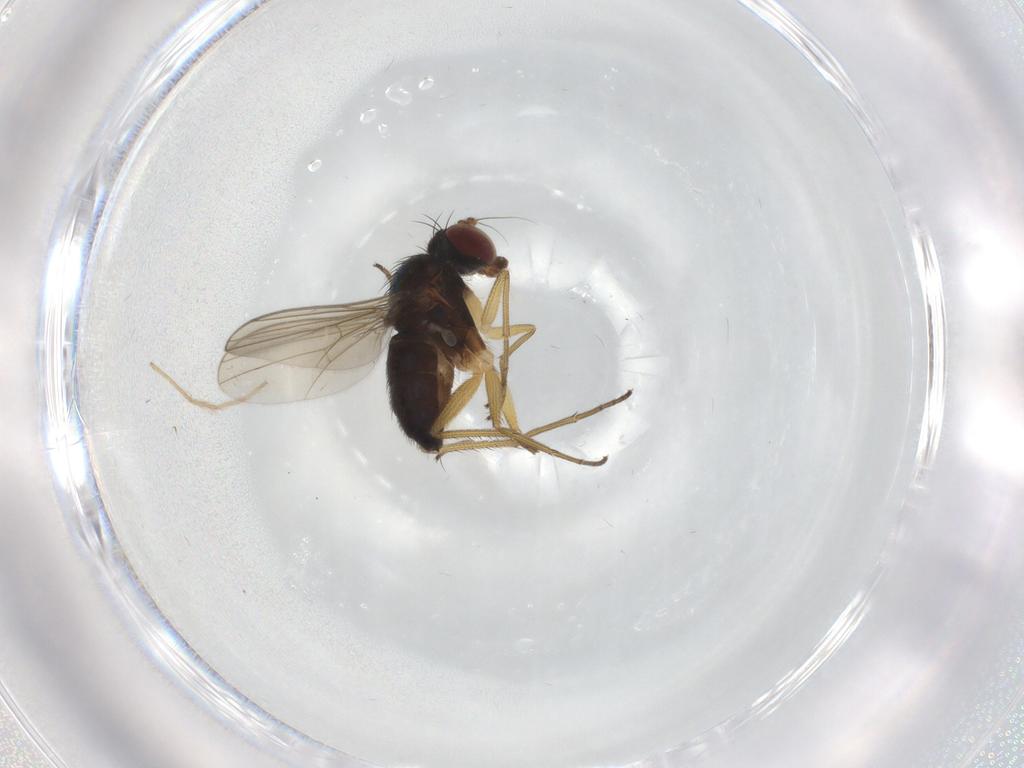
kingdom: Animalia
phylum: Arthropoda
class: Insecta
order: Diptera
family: Dolichopodidae
